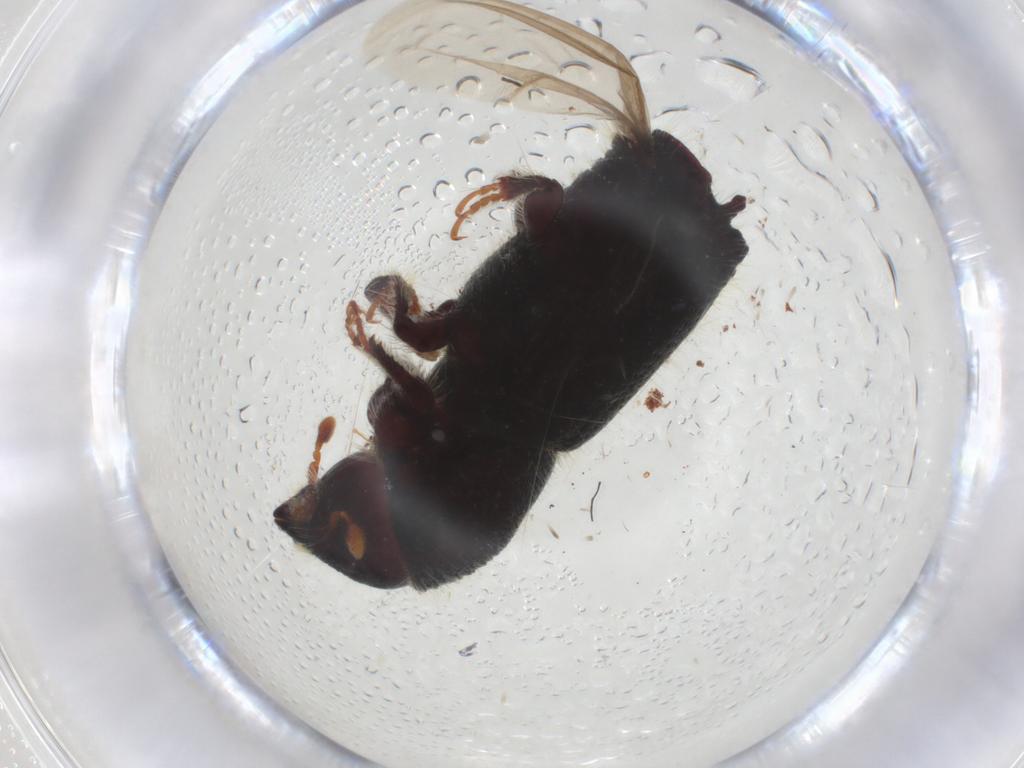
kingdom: Animalia
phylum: Arthropoda
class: Insecta
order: Coleoptera
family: Curculionidae
